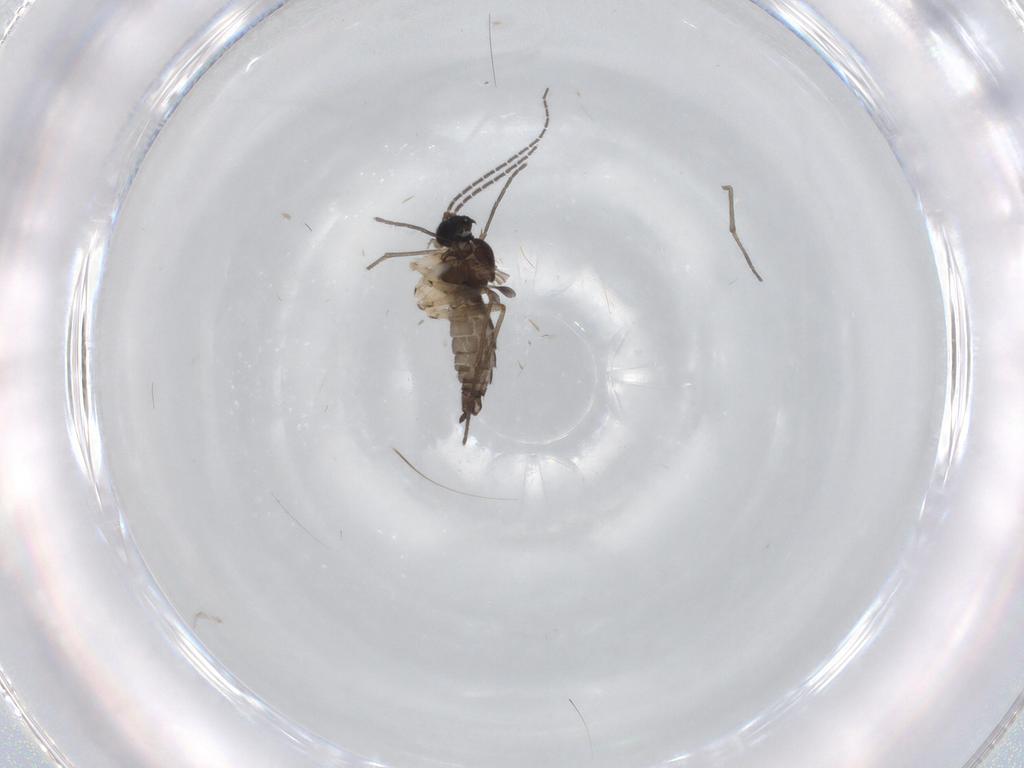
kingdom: Animalia
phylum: Arthropoda
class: Insecta
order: Diptera
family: Sciaridae
